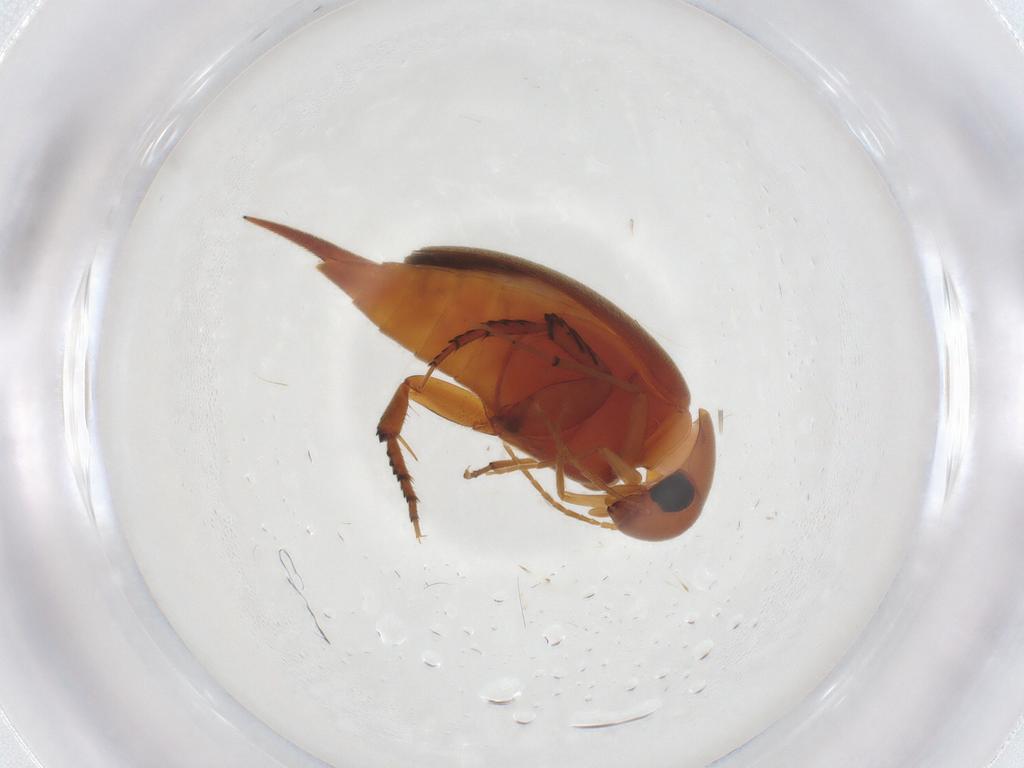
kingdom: Animalia
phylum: Arthropoda
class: Insecta
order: Coleoptera
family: Mordellidae
